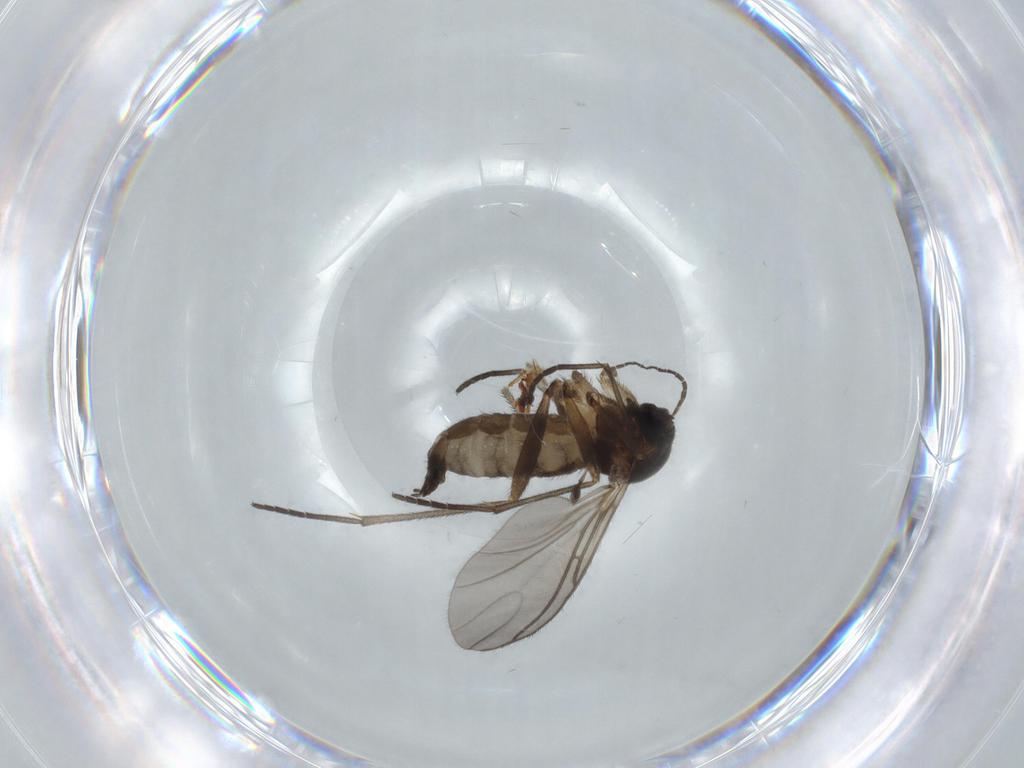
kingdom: Animalia
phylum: Arthropoda
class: Insecta
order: Diptera
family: Sciaridae
